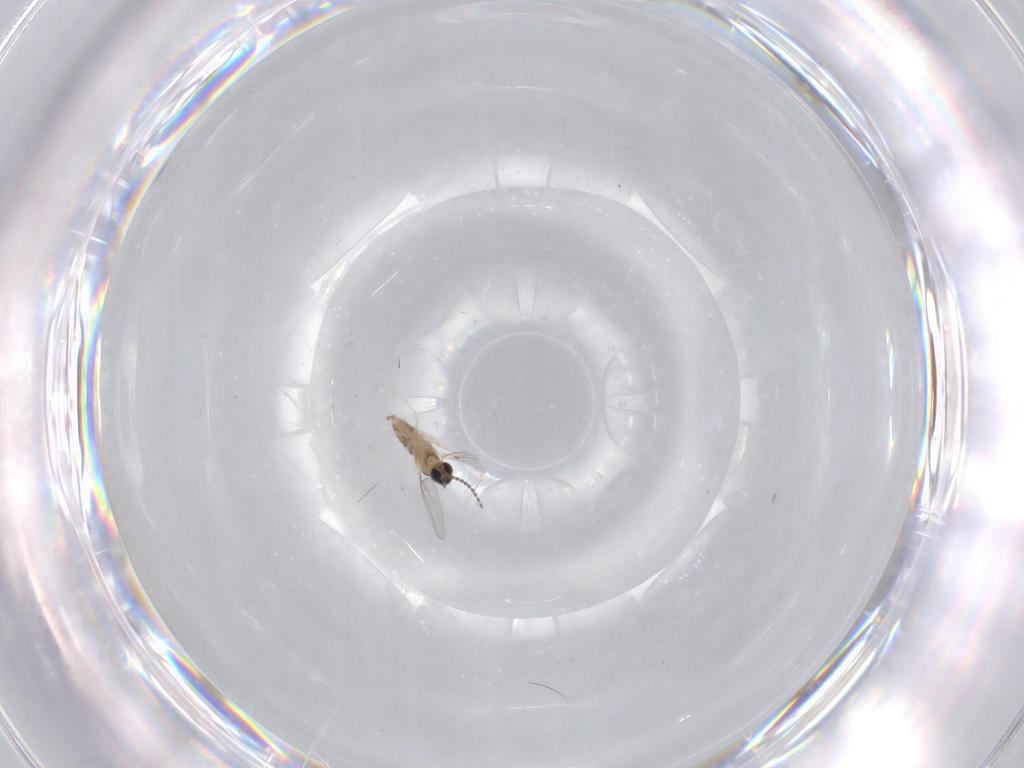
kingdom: Animalia
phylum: Arthropoda
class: Insecta
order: Diptera
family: Cecidomyiidae
